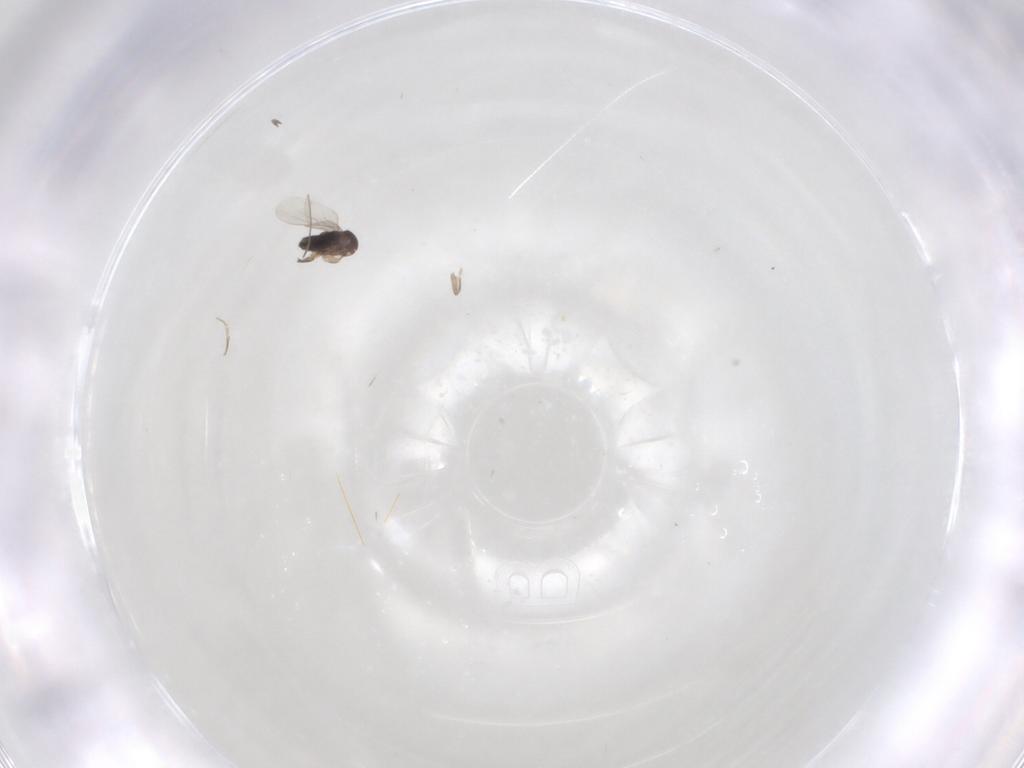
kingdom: Animalia
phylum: Arthropoda
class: Insecta
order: Diptera
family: Phoridae
